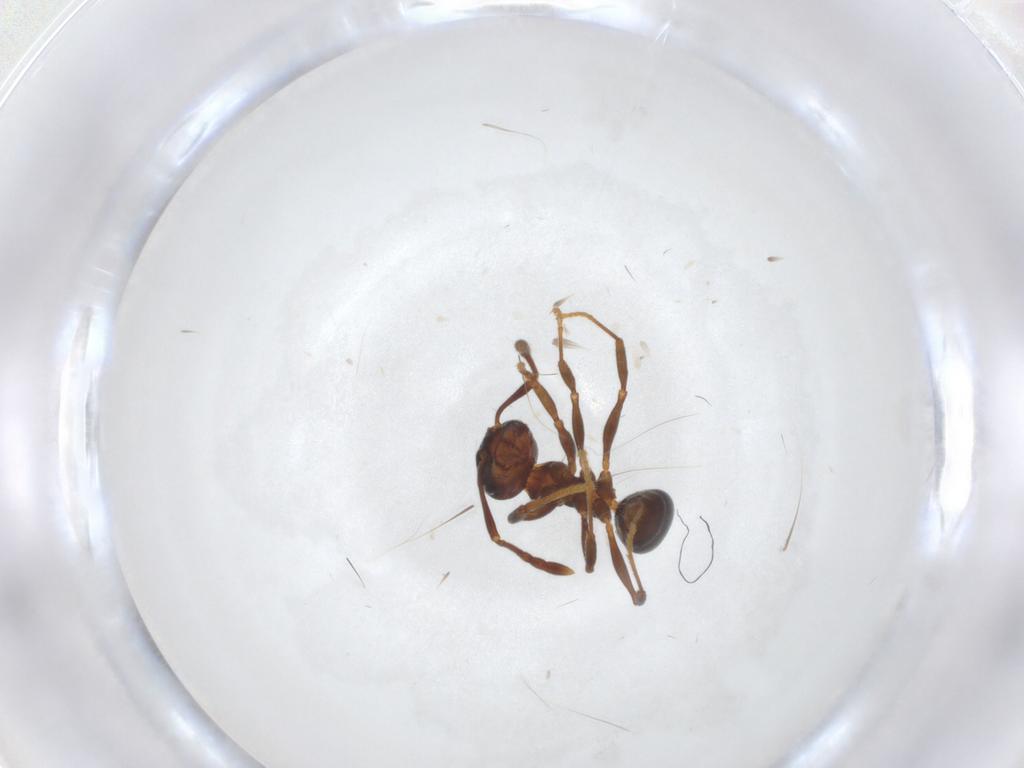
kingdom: Animalia
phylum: Arthropoda
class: Insecta
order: Hymenoptera
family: Formicidae
